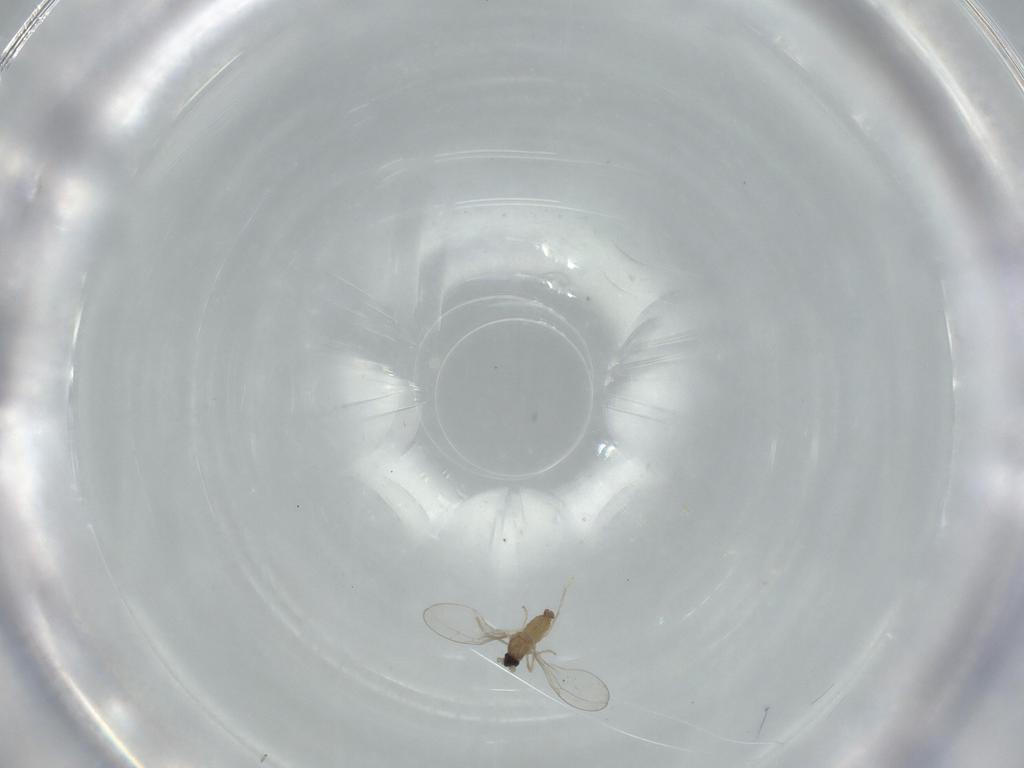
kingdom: Animalia
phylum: Arthropoda
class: Insecta
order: Diptera
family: Cecidomyiidae
